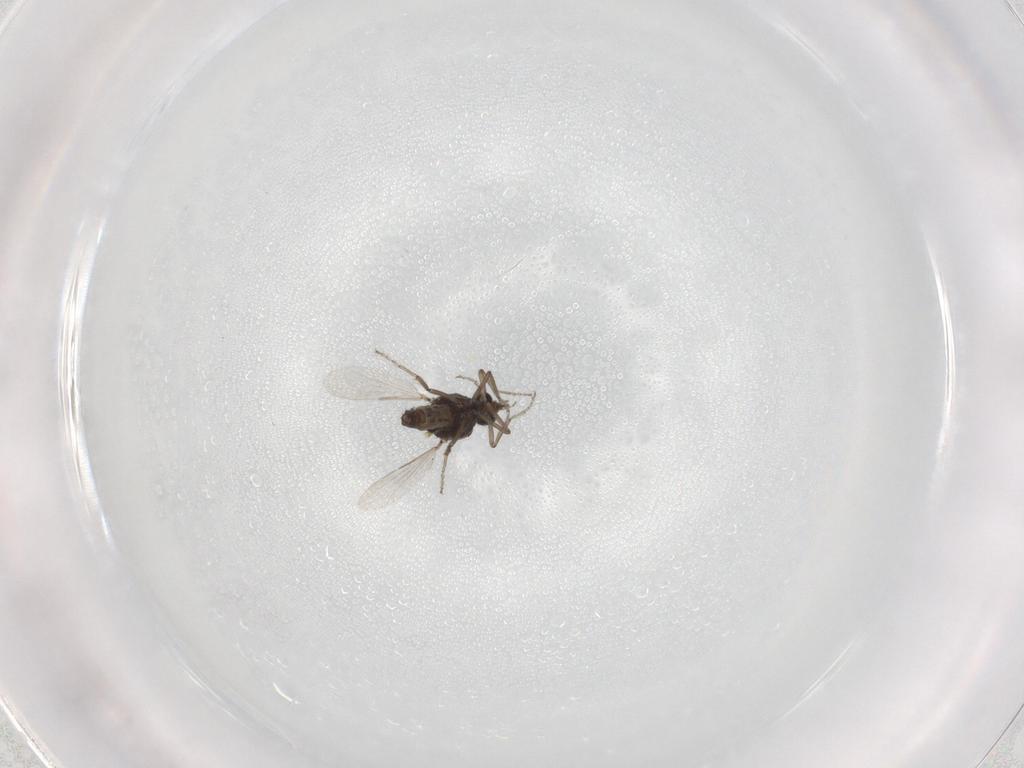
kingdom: Animalia
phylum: Arthropoda
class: Insecta
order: Diptera
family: Ceratopogonidae
